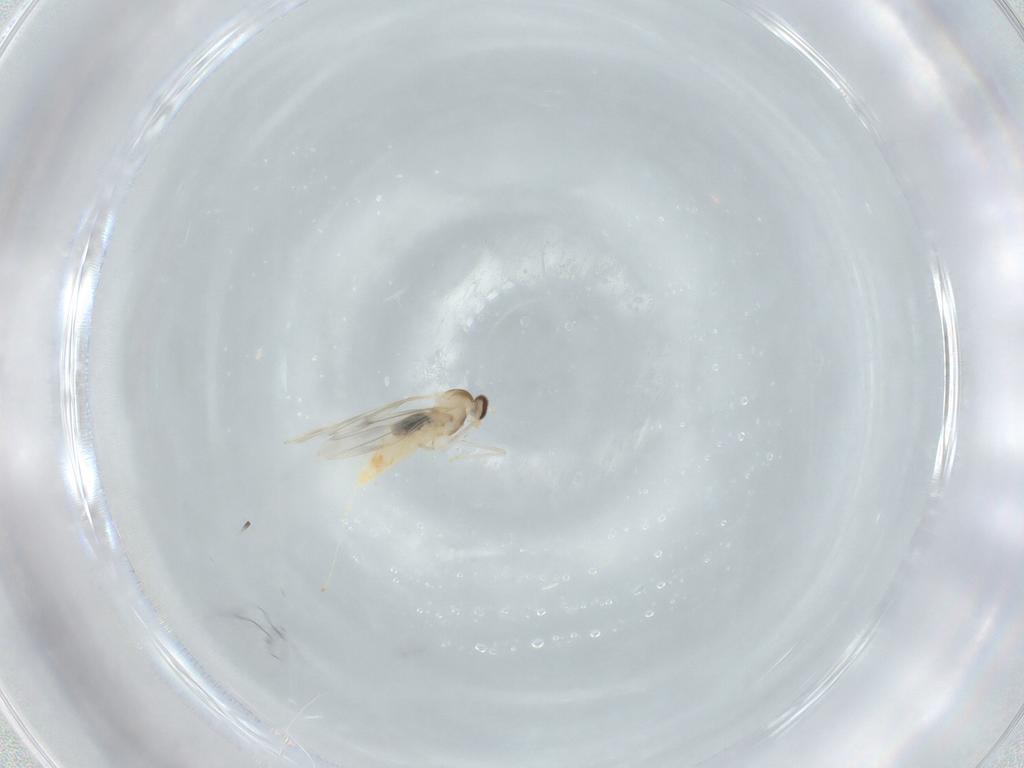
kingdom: Animalia
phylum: Arthropoda
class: Insecta
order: Diptera
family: Cecidomyiidae
